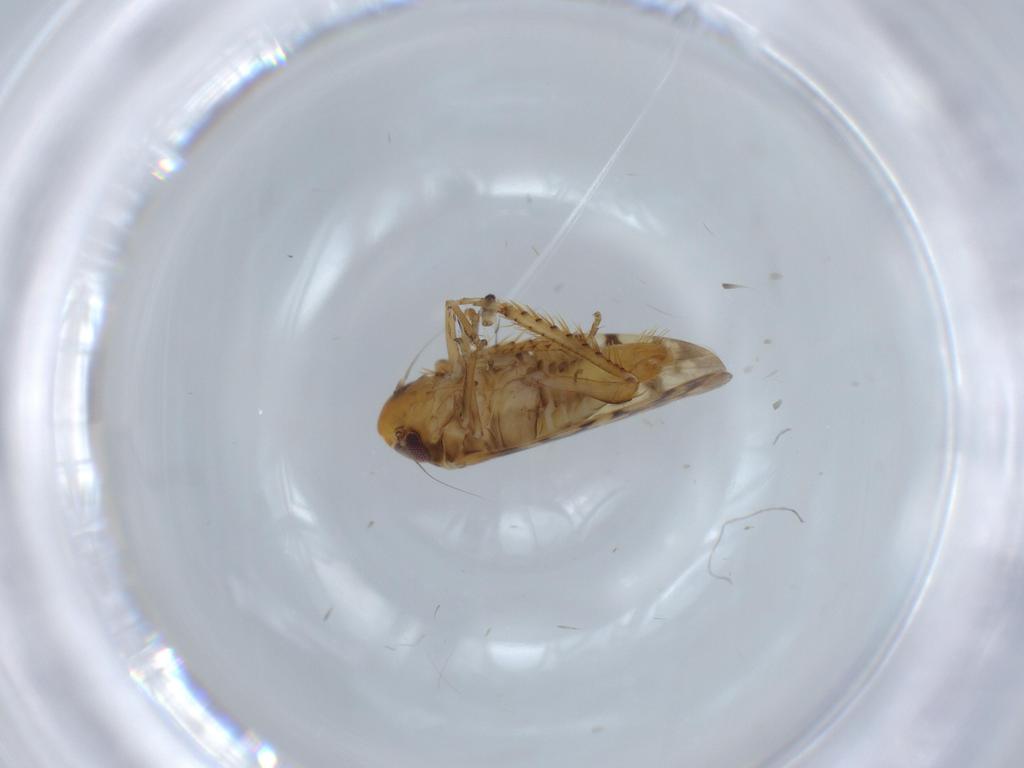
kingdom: Animalia
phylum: Arthropoda
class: Insecta
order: Hemiptera
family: Cicadellidae
